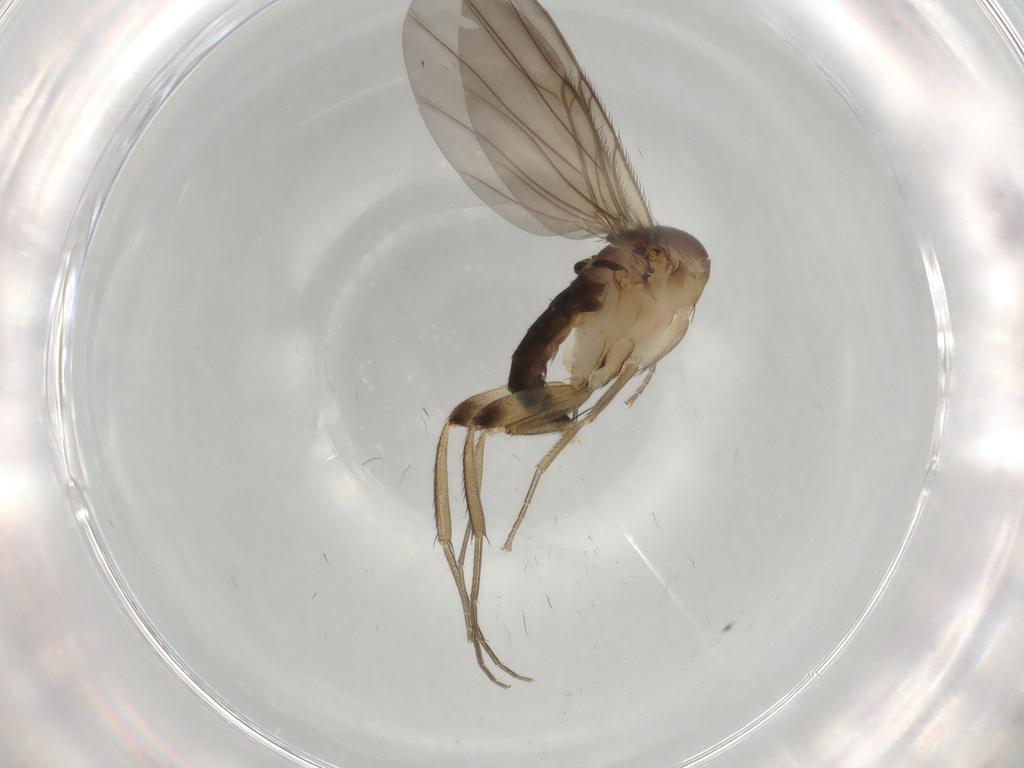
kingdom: Animalia
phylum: Arthropoda
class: Insecta
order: Diptera
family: Phoridae
